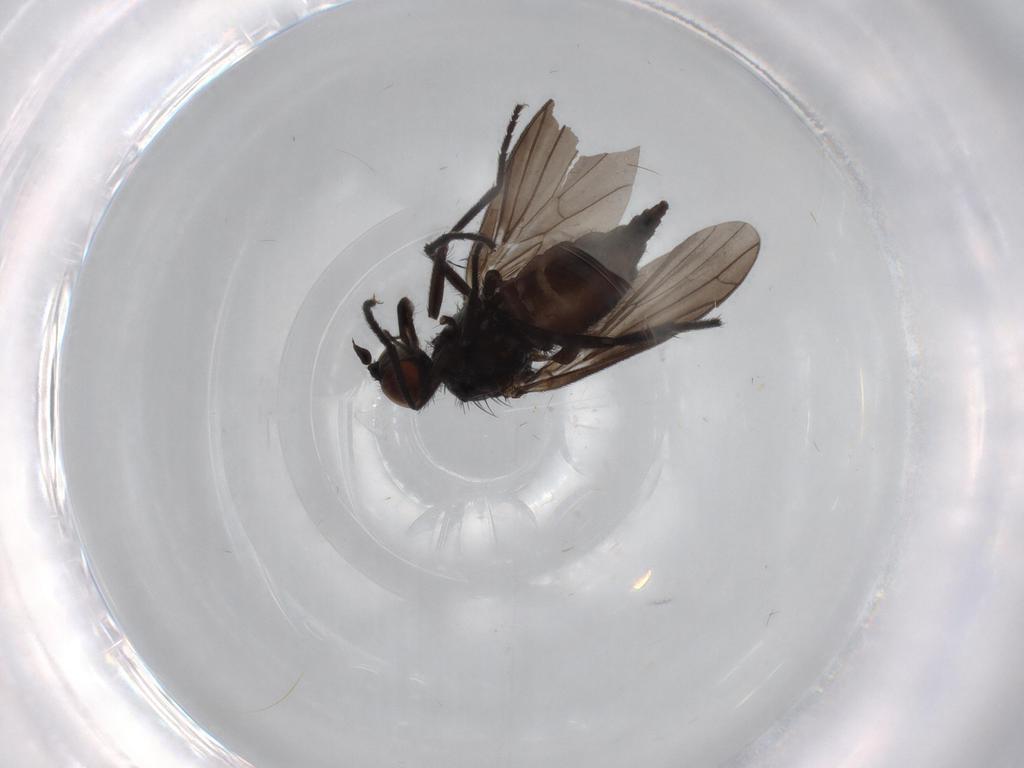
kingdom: Animalia
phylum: Arthropoda
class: Insecta
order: Diptera
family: Empididae
